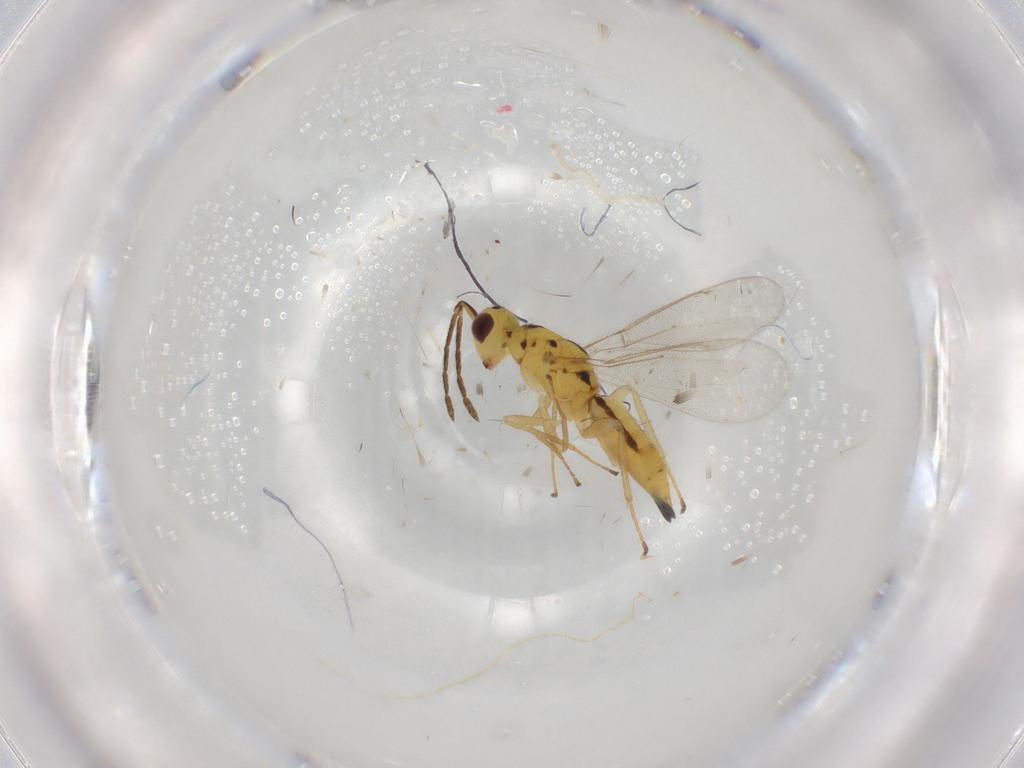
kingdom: Animalia
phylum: Arthropoda
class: Insecta
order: Hymenoptera
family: Eulophidae
